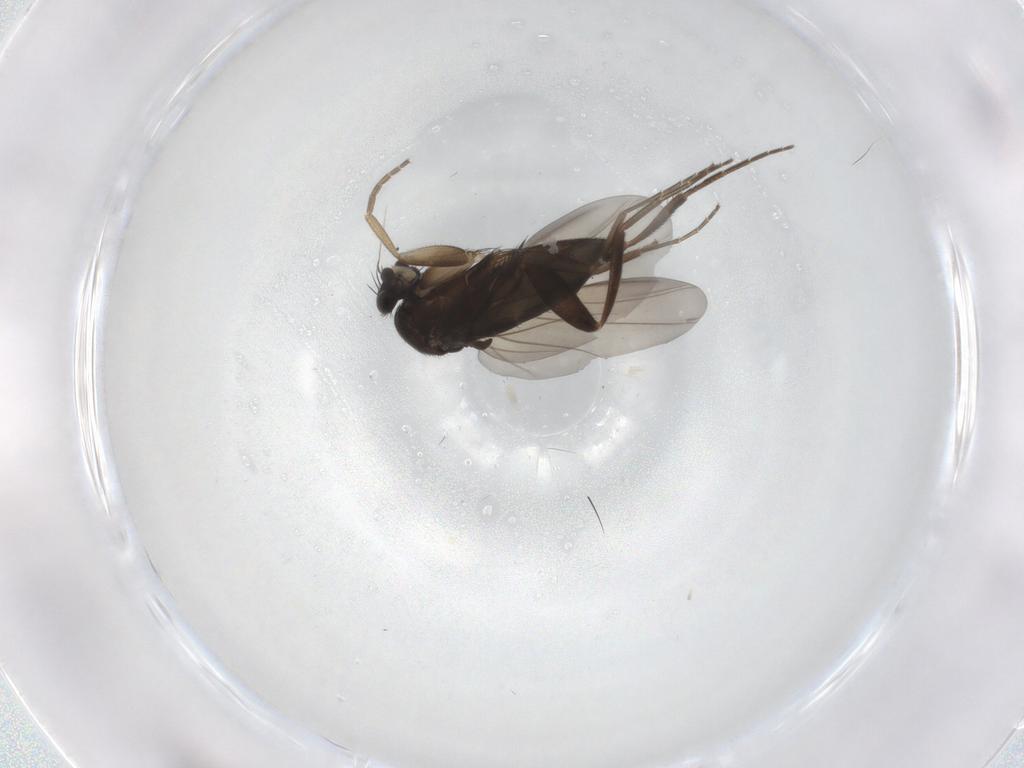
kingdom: Animalia
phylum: Arthropoda
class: Insecta
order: Diptera
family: Phoridae
